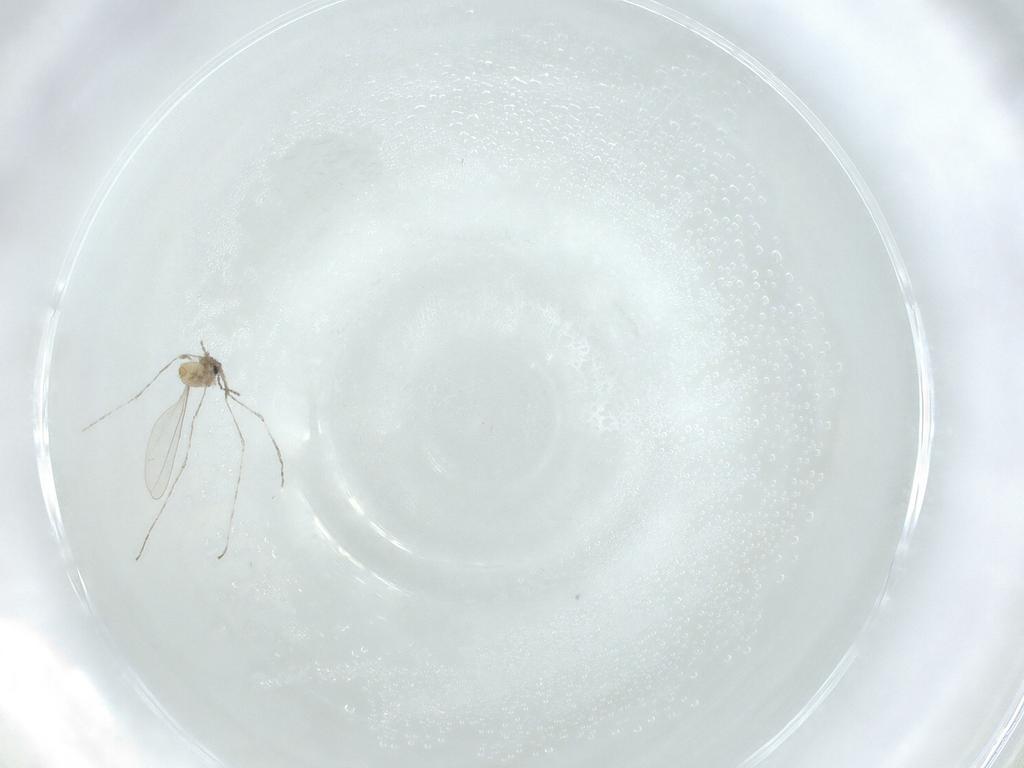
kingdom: Animalia
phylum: Arthropoda
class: Insecta
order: Diptera
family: Cecidomyiidae
